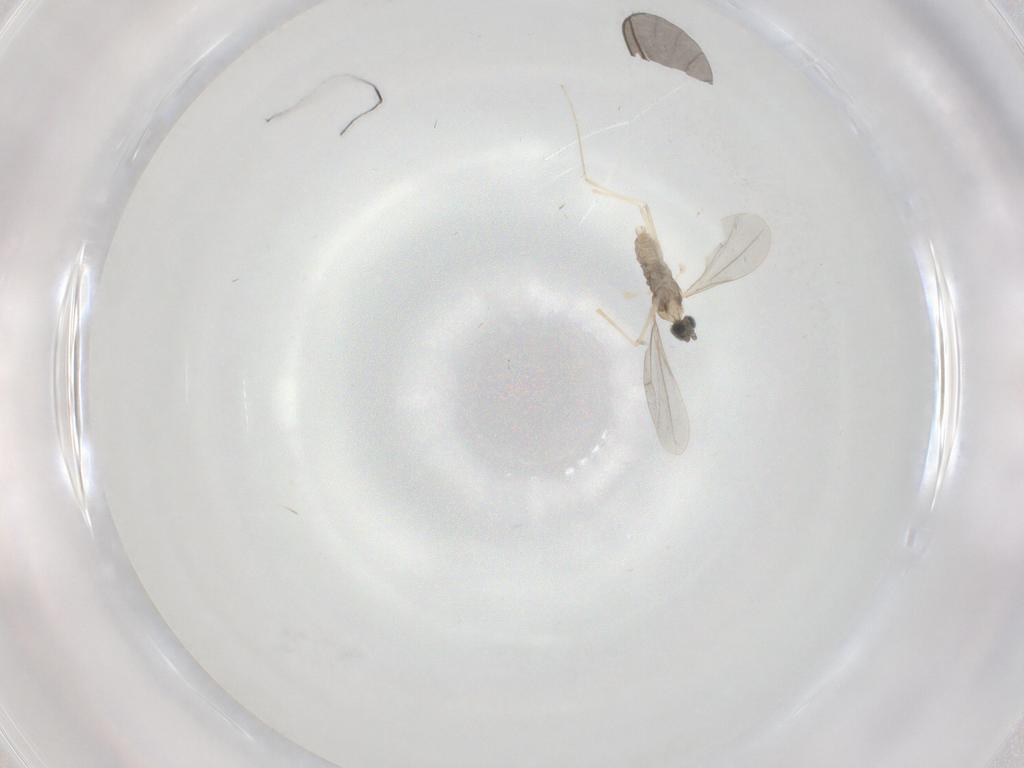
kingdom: Animalia
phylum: Arthropoda
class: Insecta
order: Diptera
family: Cecidomyiidae
